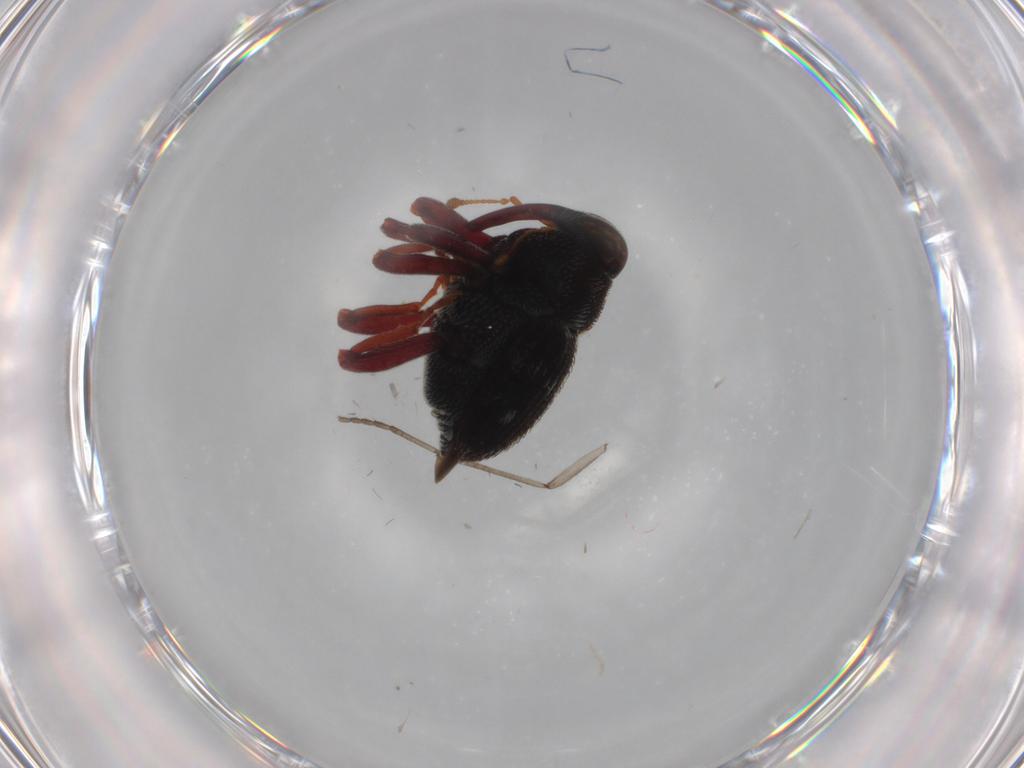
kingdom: Animalia
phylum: Arthropoda
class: Insecta
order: Coleoptera
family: Curculionidae
